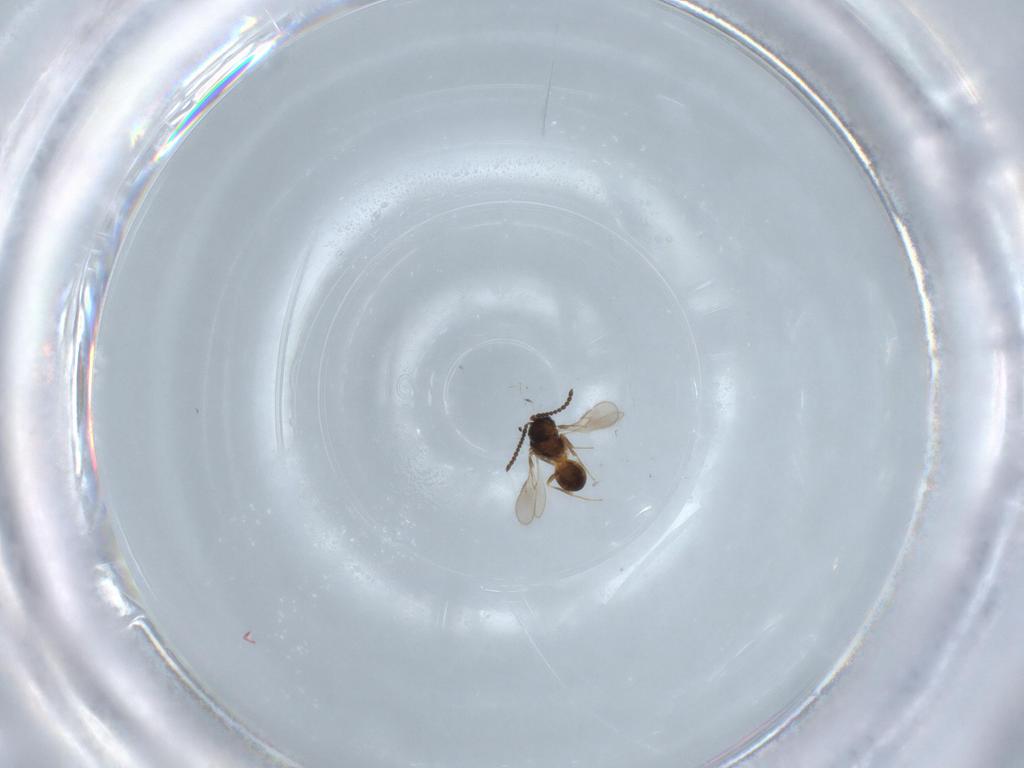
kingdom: Animalia
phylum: Arthropoda
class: Insecta
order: Hymenoptera
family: Scelionidae
